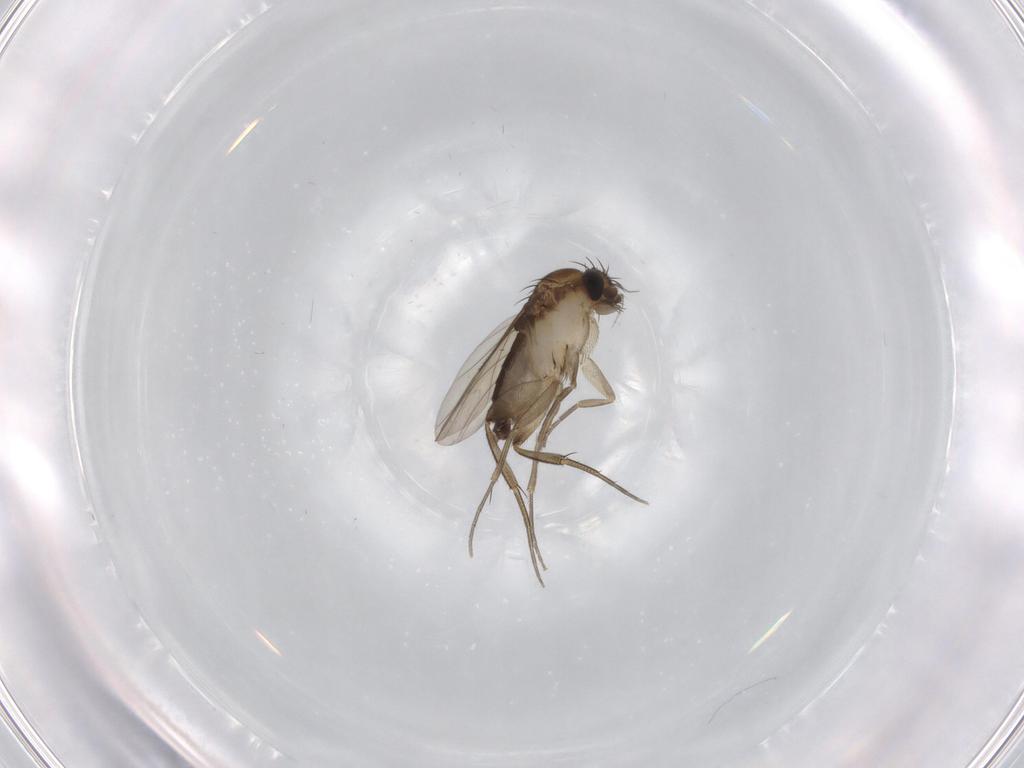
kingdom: Animalia
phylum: Arthropoda
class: Insecta
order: Diptera
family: Phoridae
